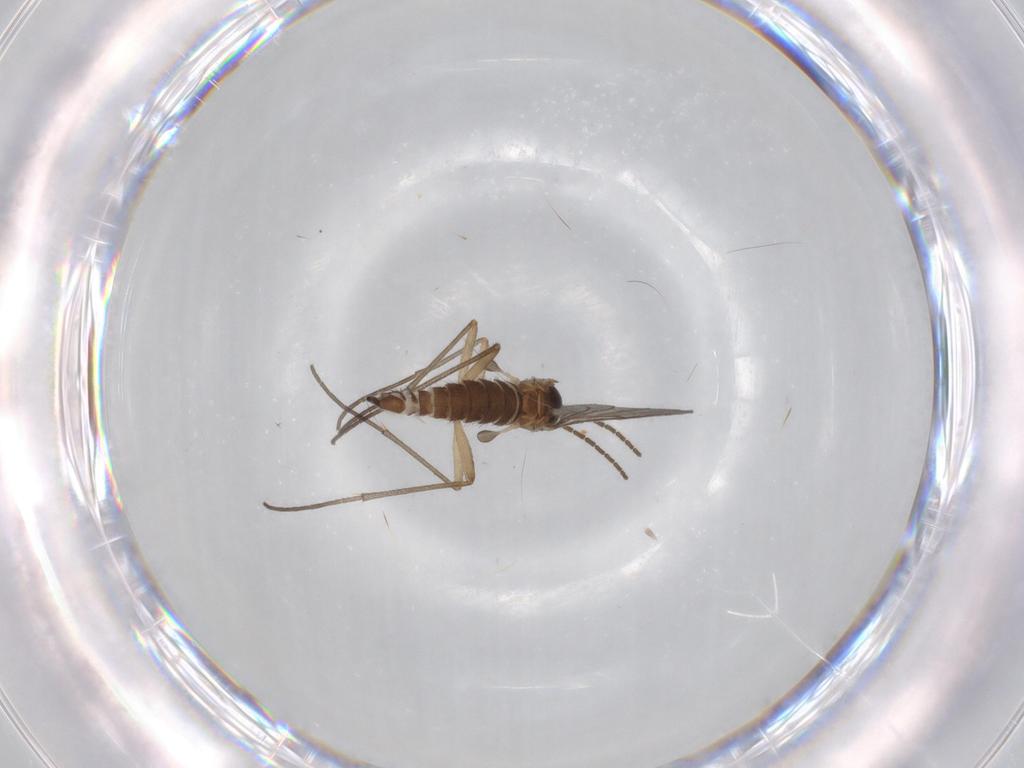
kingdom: Animalia
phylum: Arthropoda
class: Insecta
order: Diptera
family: Sciaridae
